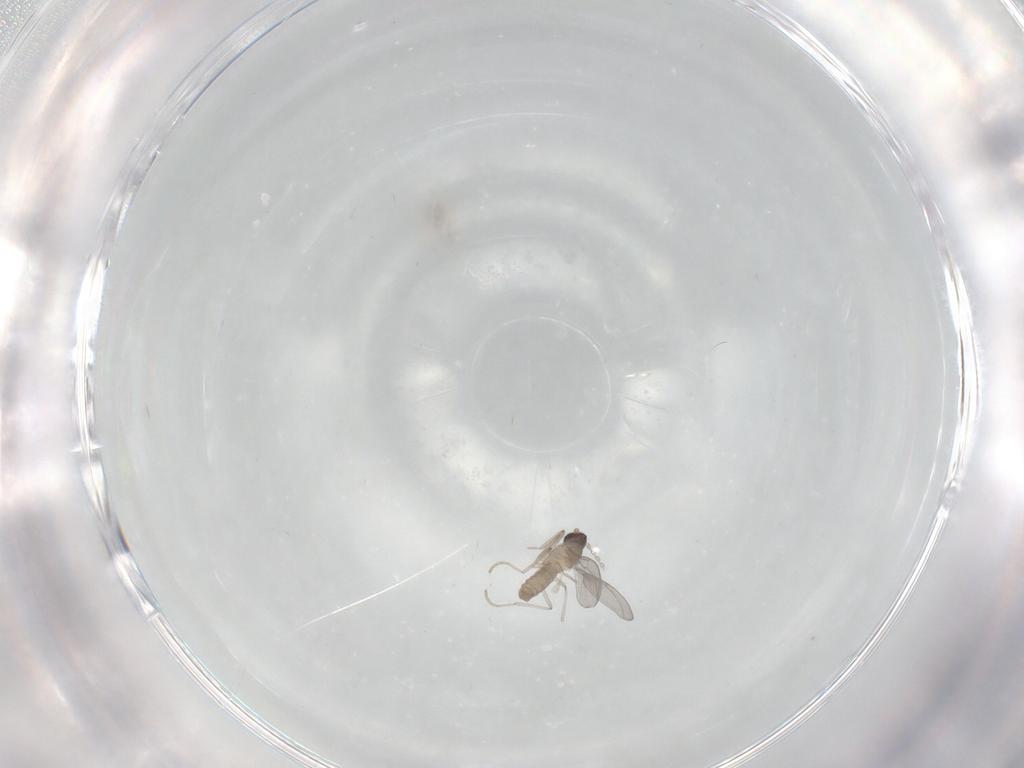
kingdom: Animalia
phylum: Arthropoda
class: Insecta
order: Diptera
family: Cecidomyiidae
